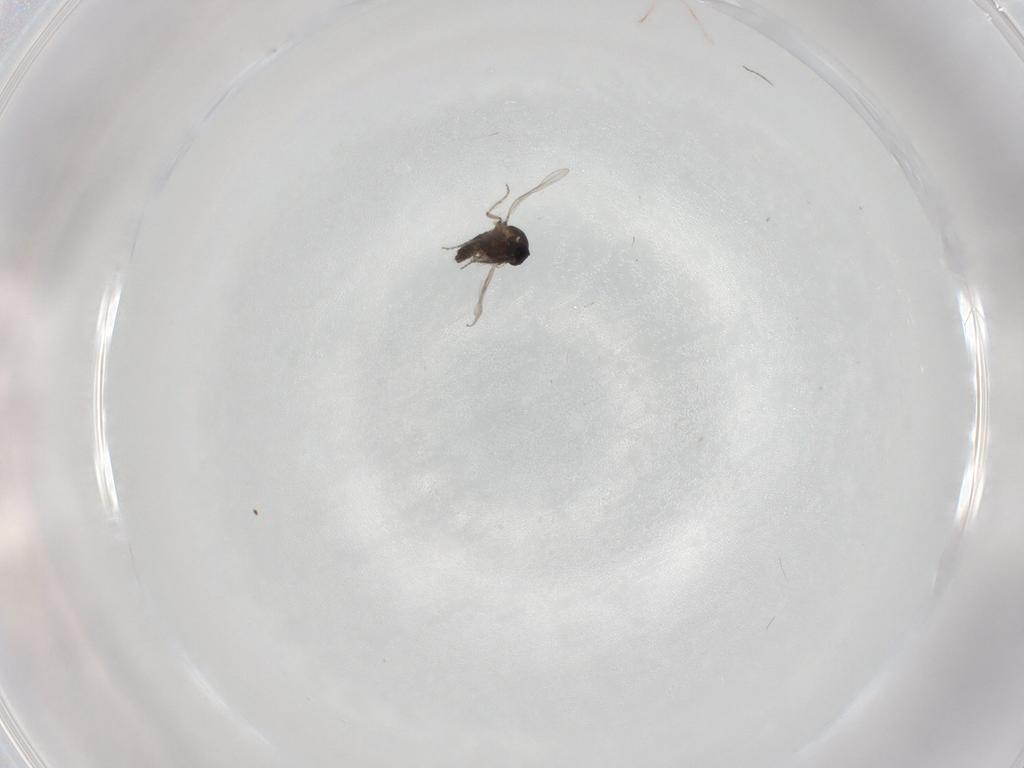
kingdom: Animalia
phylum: Arthropoda
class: Insecta
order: Diptera
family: Ceratopogonidae
